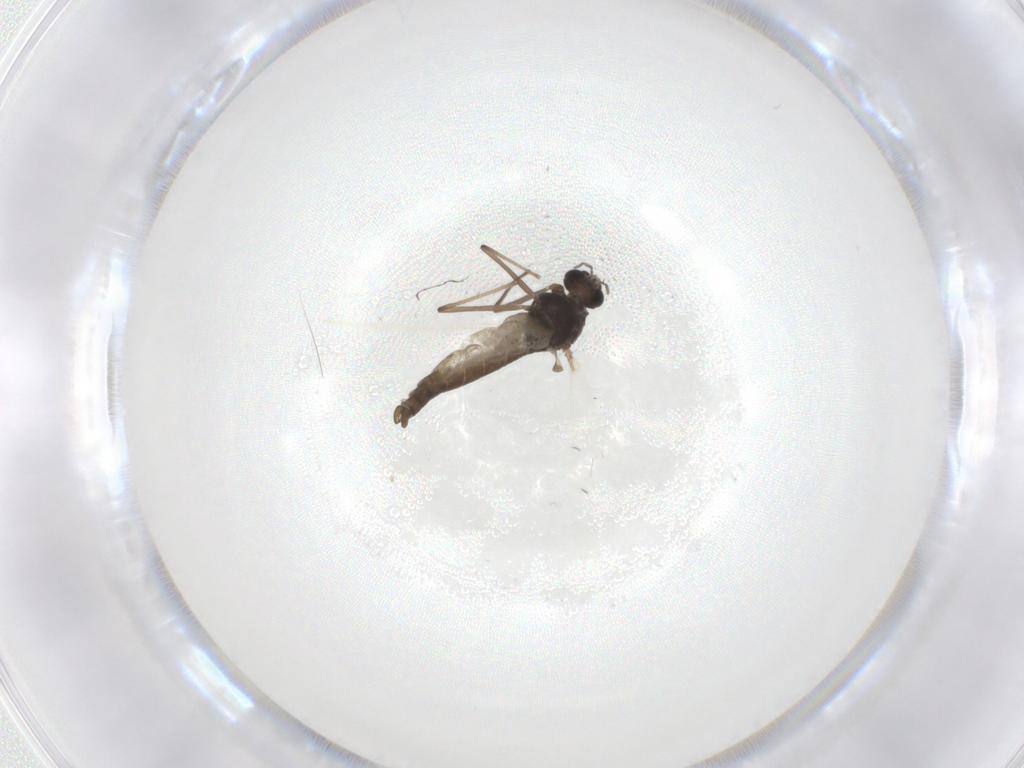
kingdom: Animalia
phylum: Arthropoda
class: Insecta
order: Diptera
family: Chironomidae
